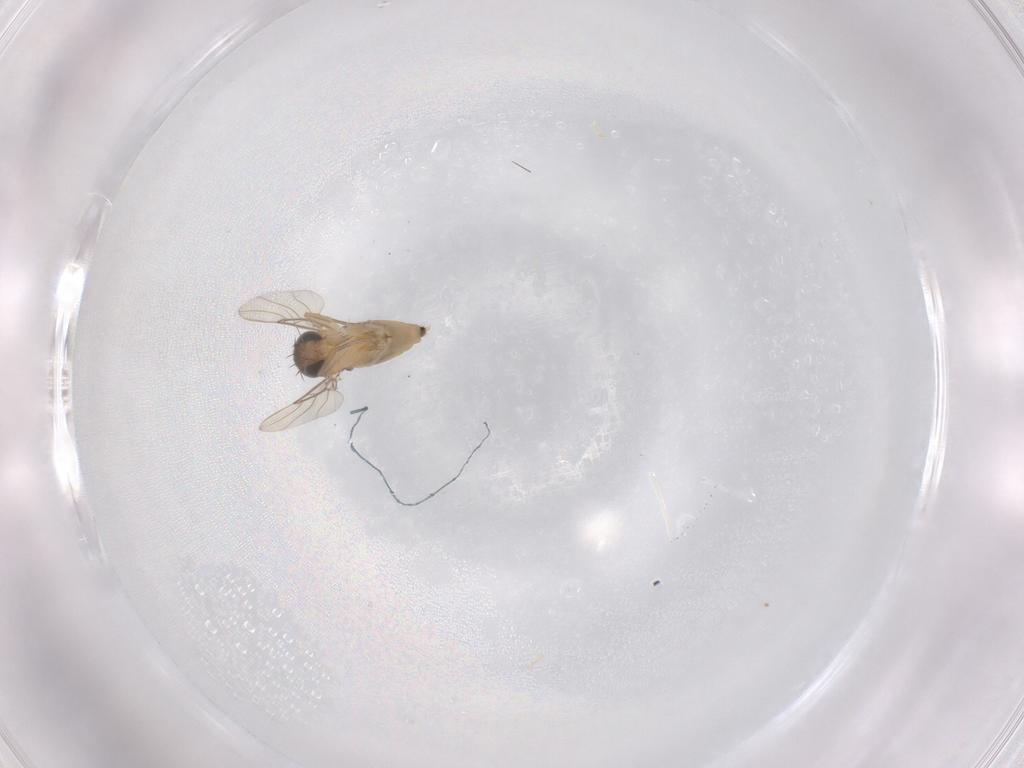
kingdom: Animalia
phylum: Arthropoda
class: Insecta
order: Diptera
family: Phoridae
